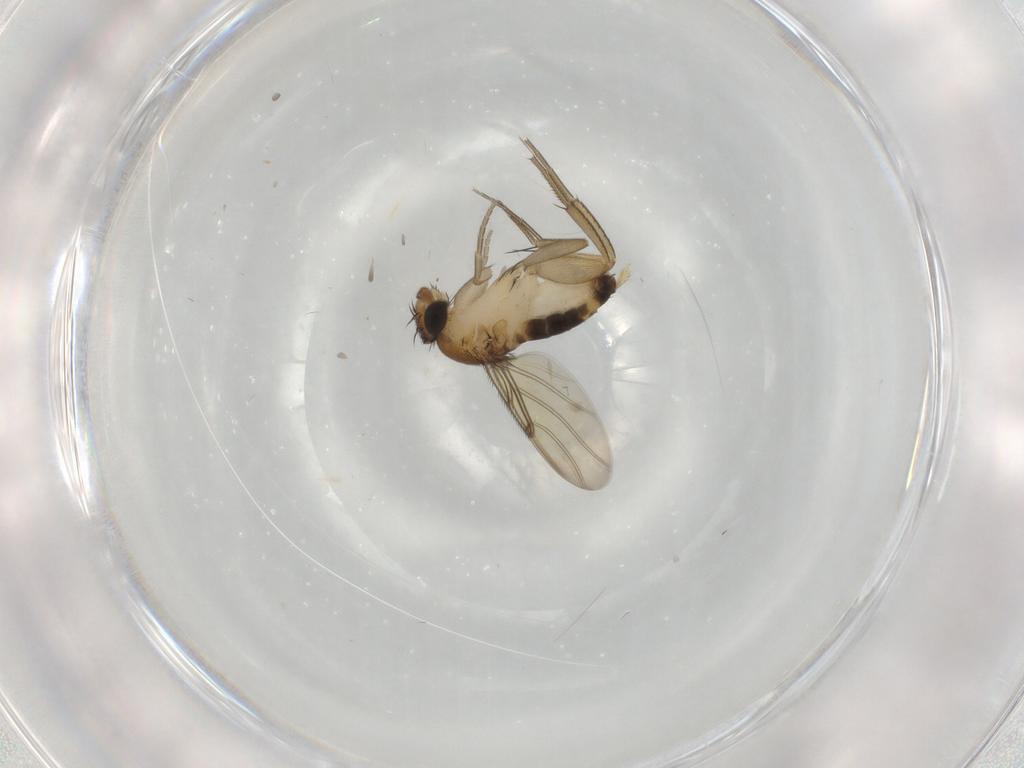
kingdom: Animalia
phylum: Arthropoda
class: Insecta
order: Diptera
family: Phoridae
